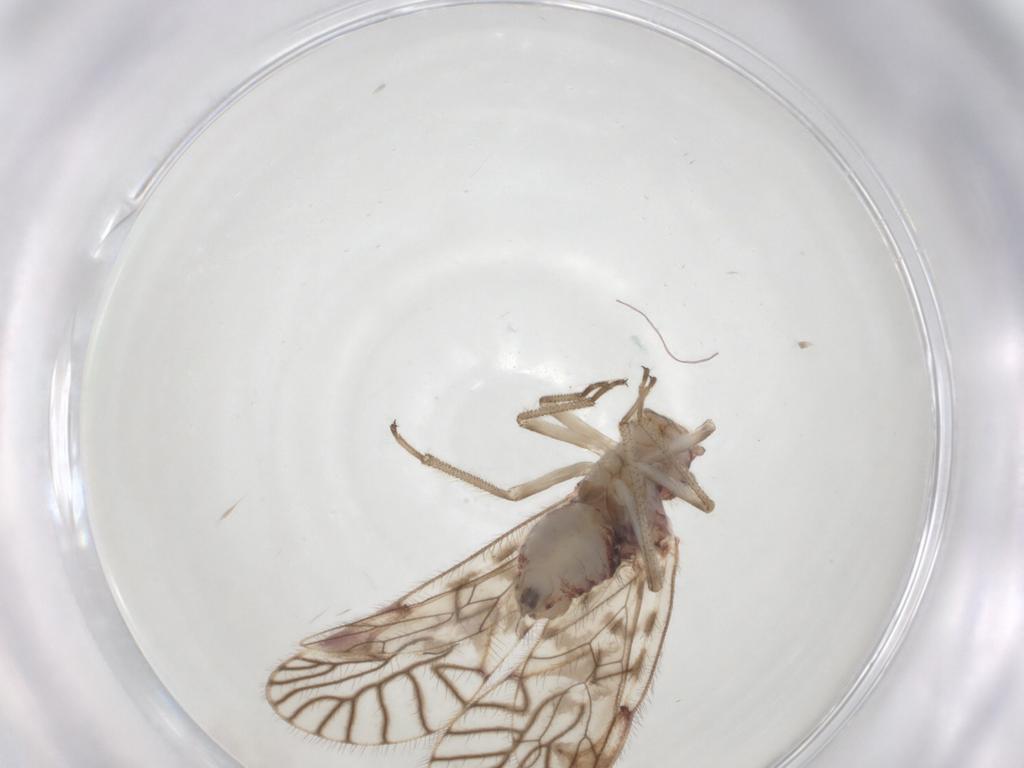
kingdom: Animalia
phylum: Arthropoda
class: Insecta
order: Psocodea
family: Amphipsocidae
